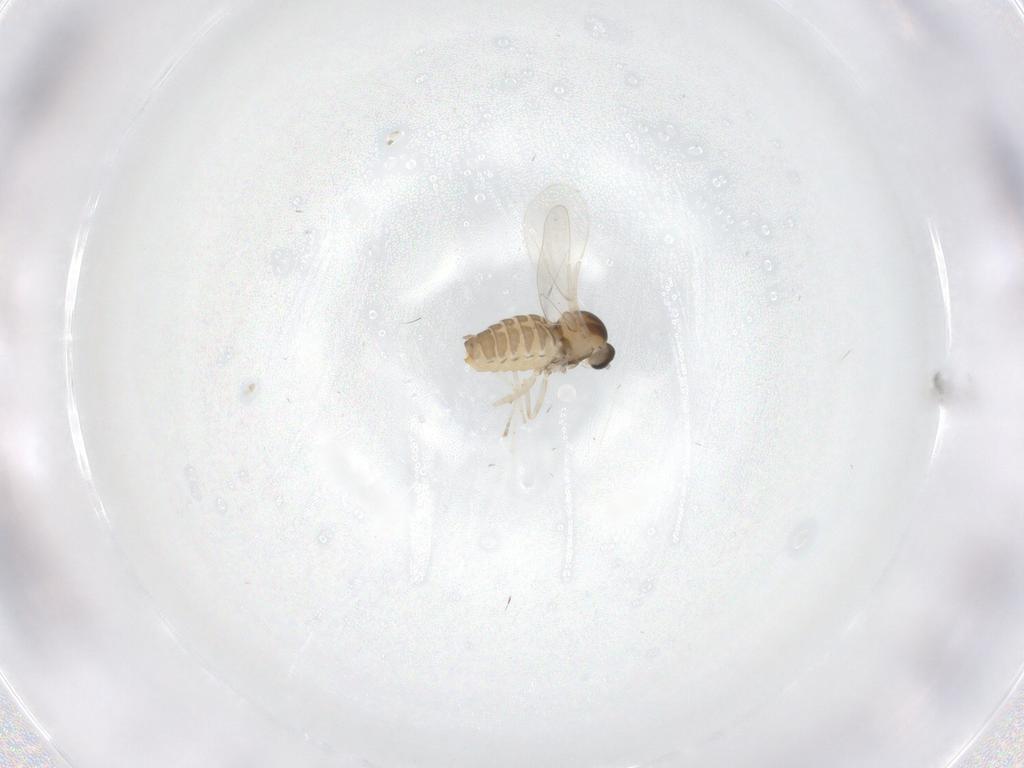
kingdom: Animalia
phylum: Arthropoda
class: Insecta
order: Diptera
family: Cecidomyiidae
